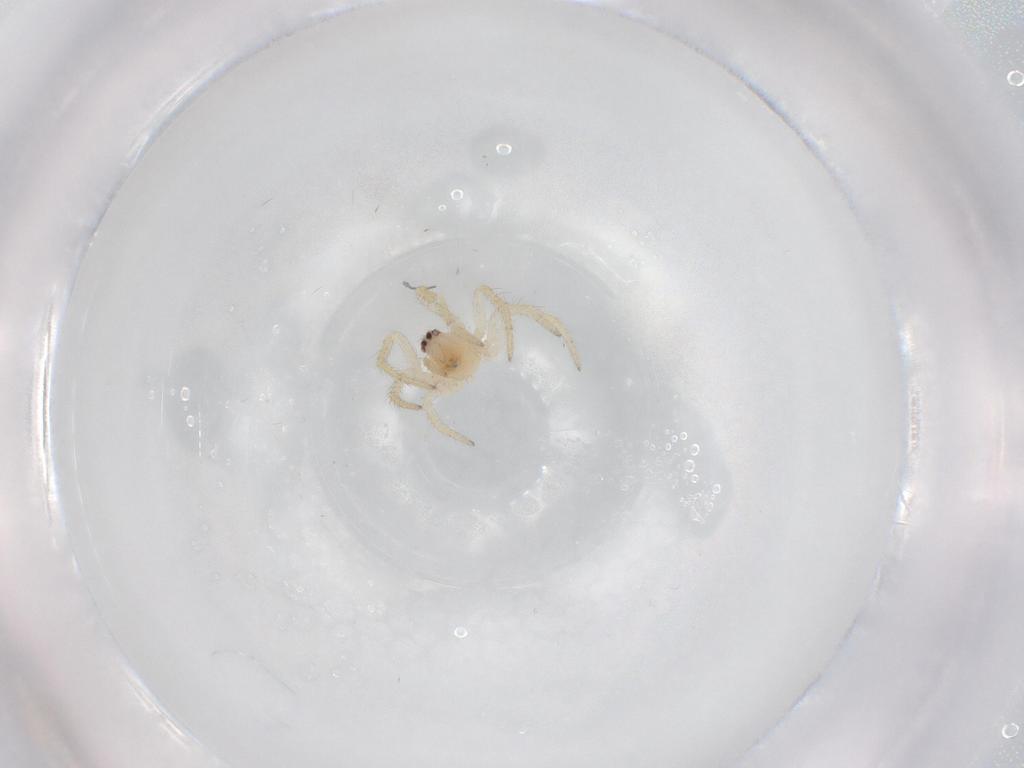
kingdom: Animalia
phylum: Arthropoda
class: Arachnida
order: Araneae
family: Theridiidae
